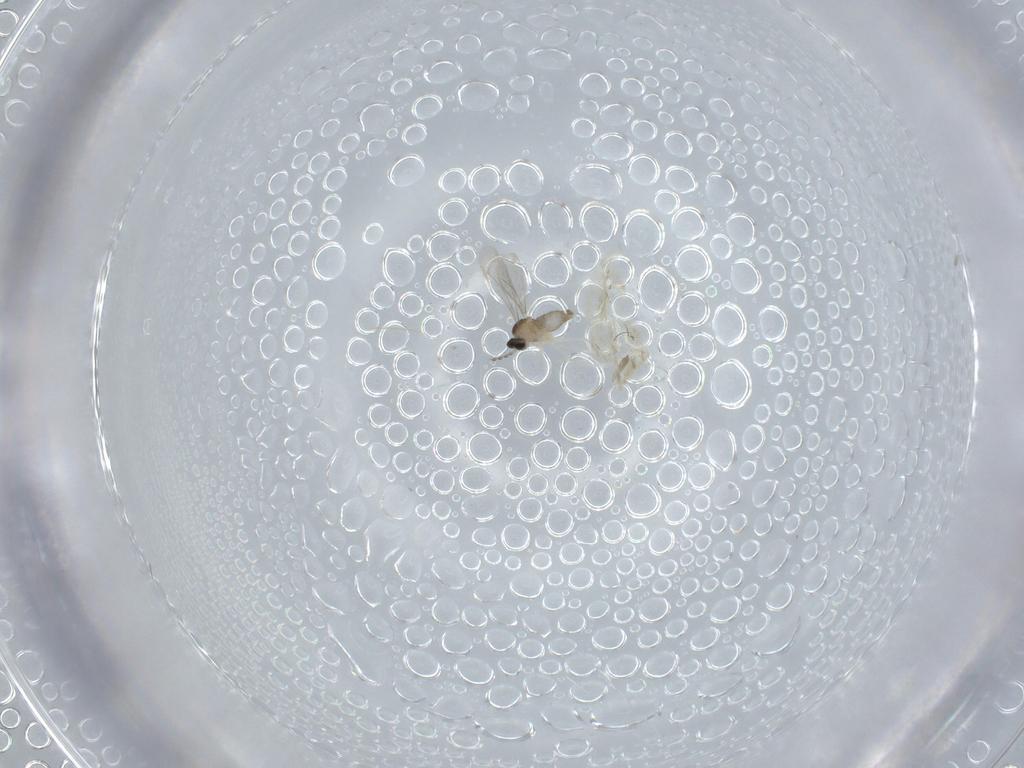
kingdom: Animalia
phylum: Arthropoda
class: Insecta
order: Diptera
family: Cecidomyiidae
